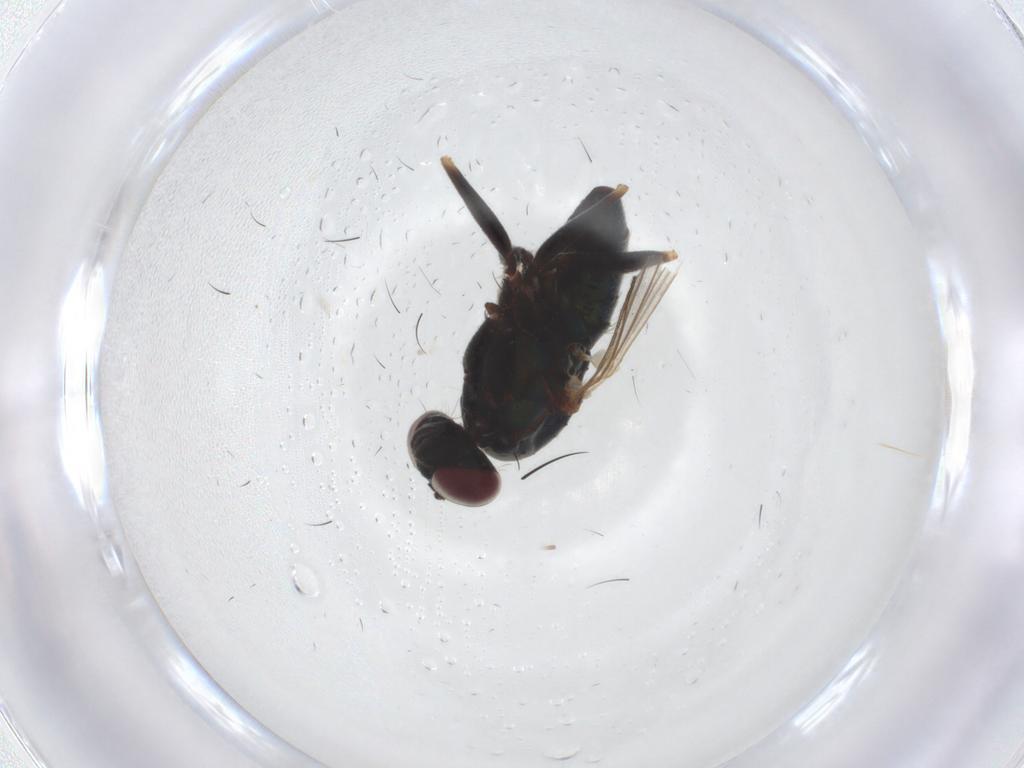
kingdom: Animalia
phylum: Arthropoda
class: Insecta
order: Diptera
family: Dolichopodidae
